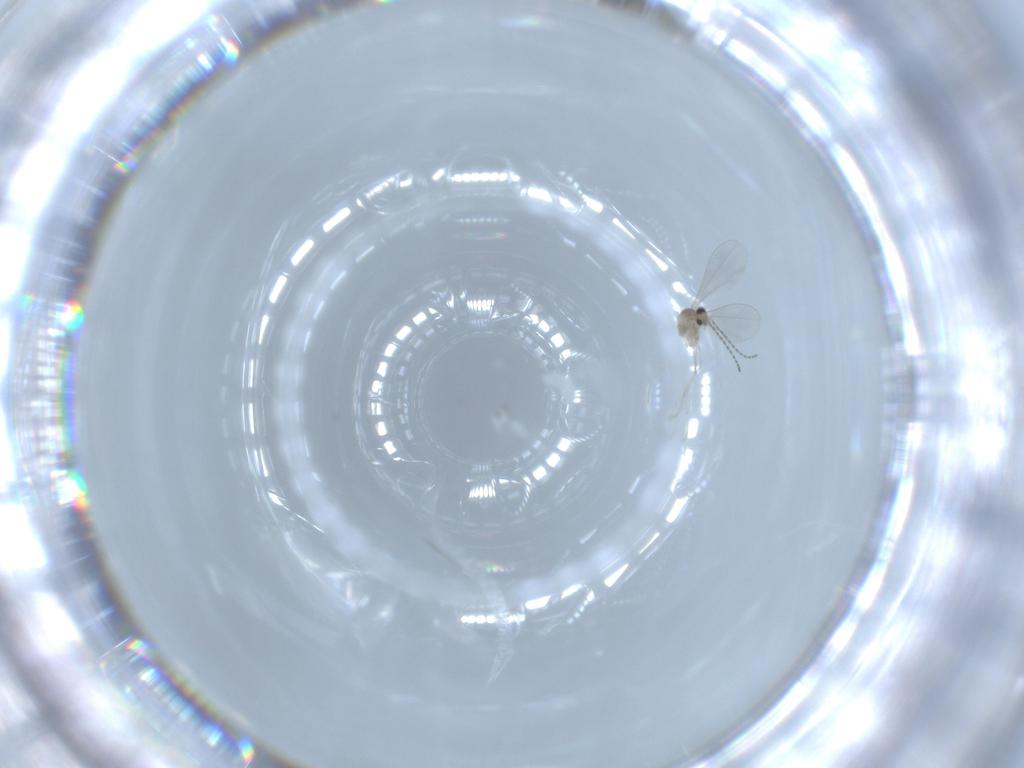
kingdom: Animalia
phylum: Arthropoda
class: Insecta
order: Diptera
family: Cecidomyiidae
